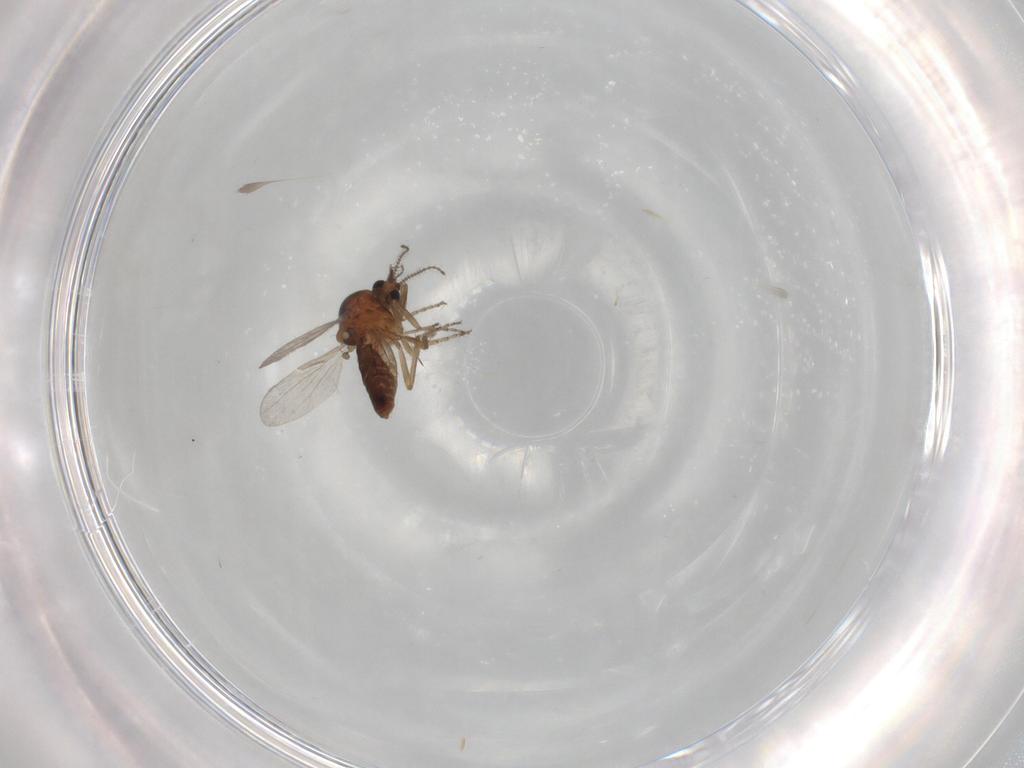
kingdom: Animalia
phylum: Arthropoda
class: Insecta
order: Diptera
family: Ceratopogonidae
